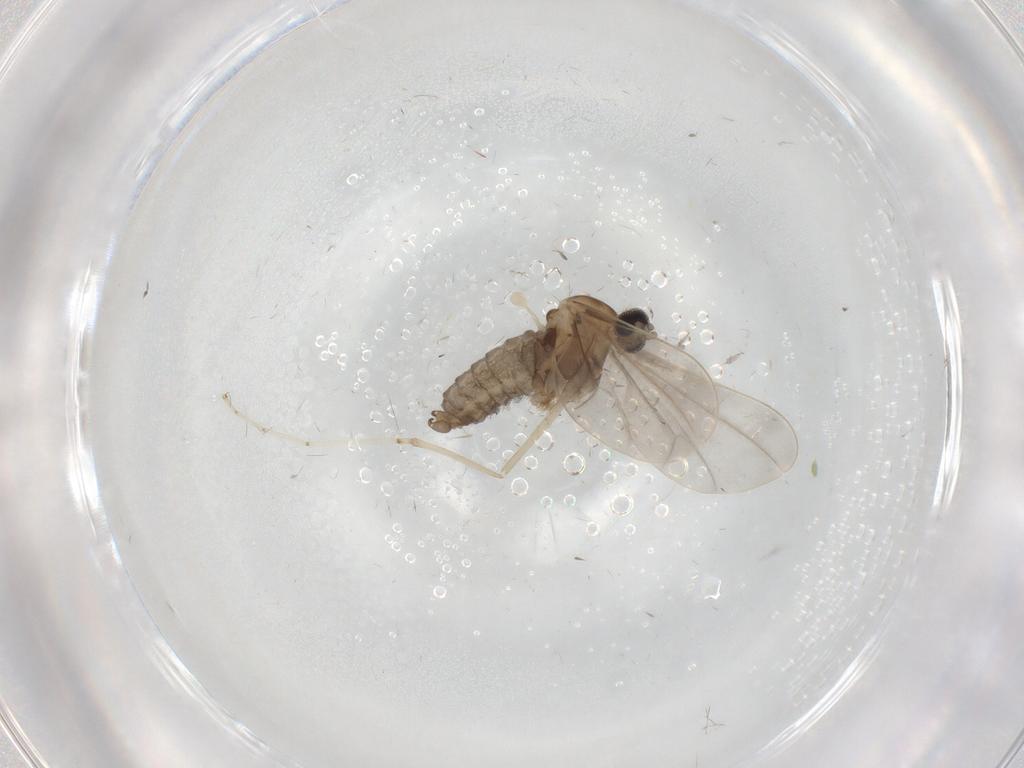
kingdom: Animalia
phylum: Arthropoda
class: Insecta
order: Diptera
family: Cecidomyiidae
